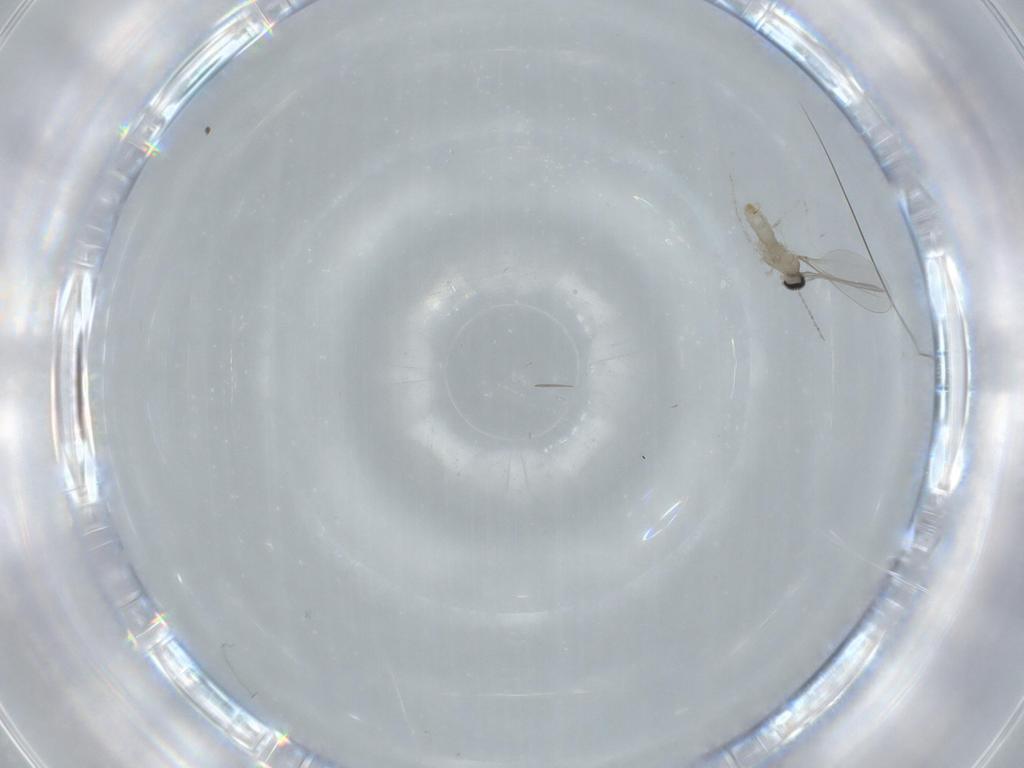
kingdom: Animalia
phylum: Arthropoda
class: Insecta
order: Diptera
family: Cecidomyiidae
